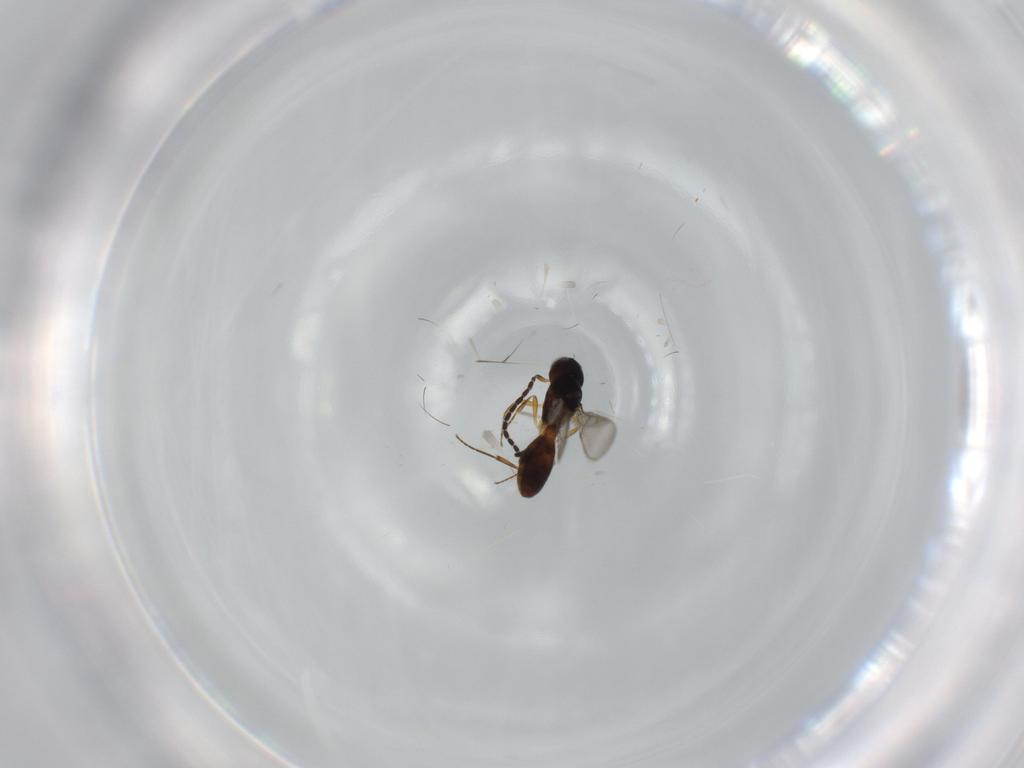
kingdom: Animalia
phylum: Arthropoda
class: Insecta
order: Hymenoptera
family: Scelionidae
